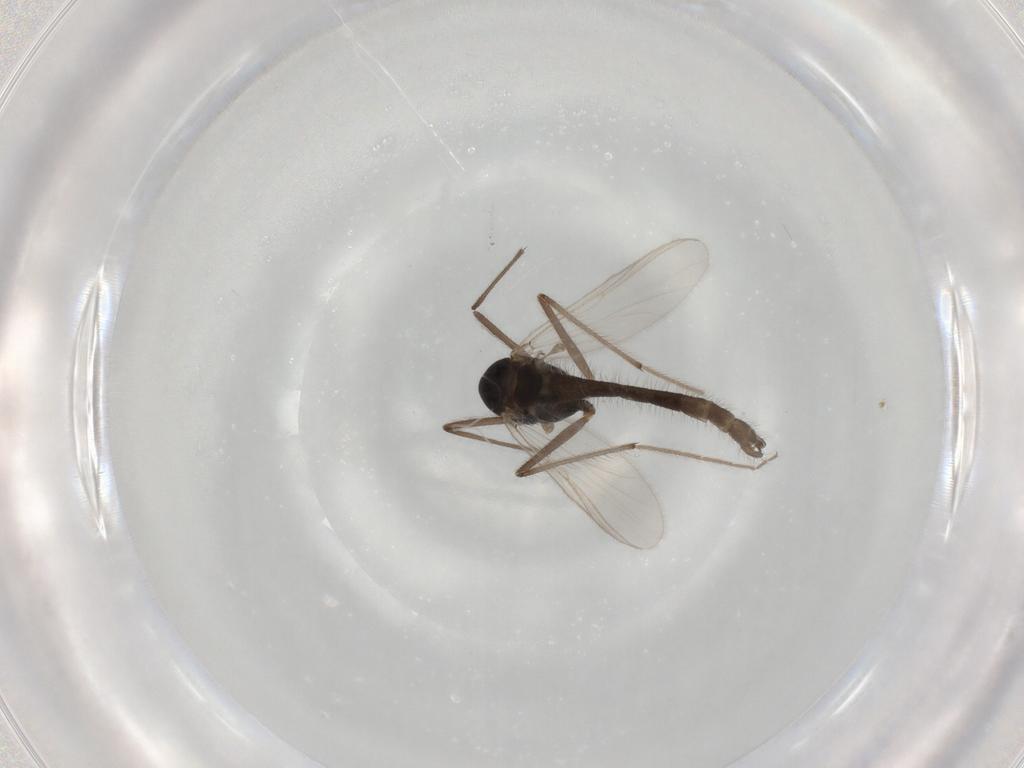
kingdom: Animalia
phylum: Arthropoda
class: Insecta
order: Diptera
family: Chironomidae
